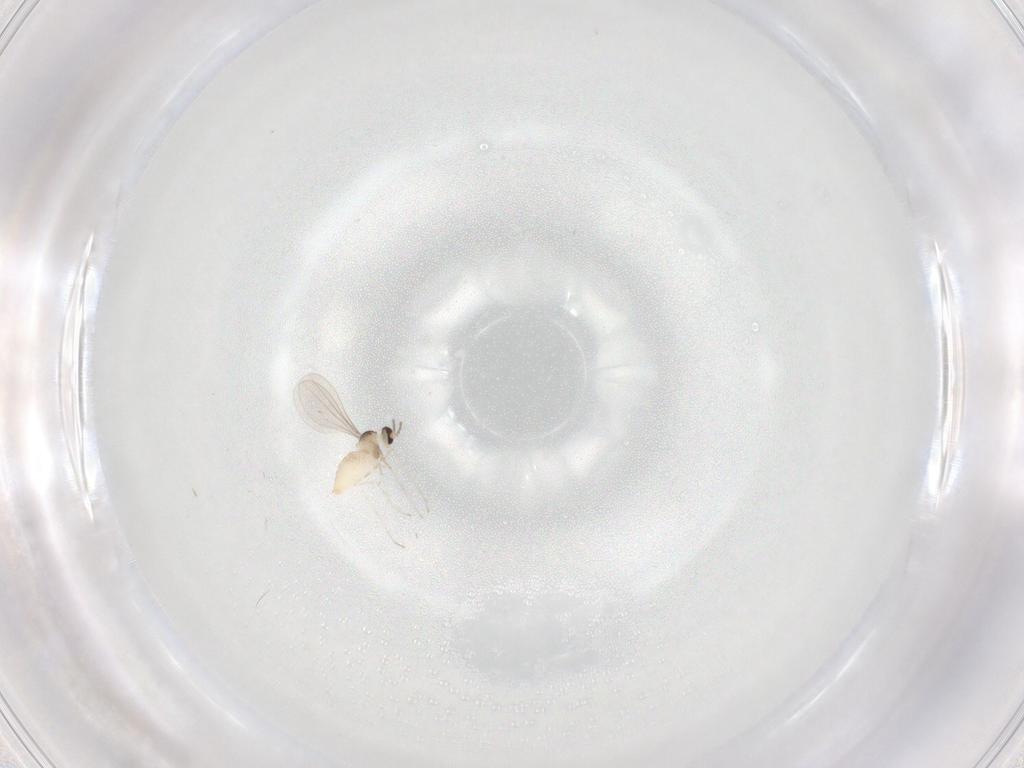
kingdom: Animalia
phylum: Arthropoda
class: Insecta
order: Diptera
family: Cecidomyiidae
